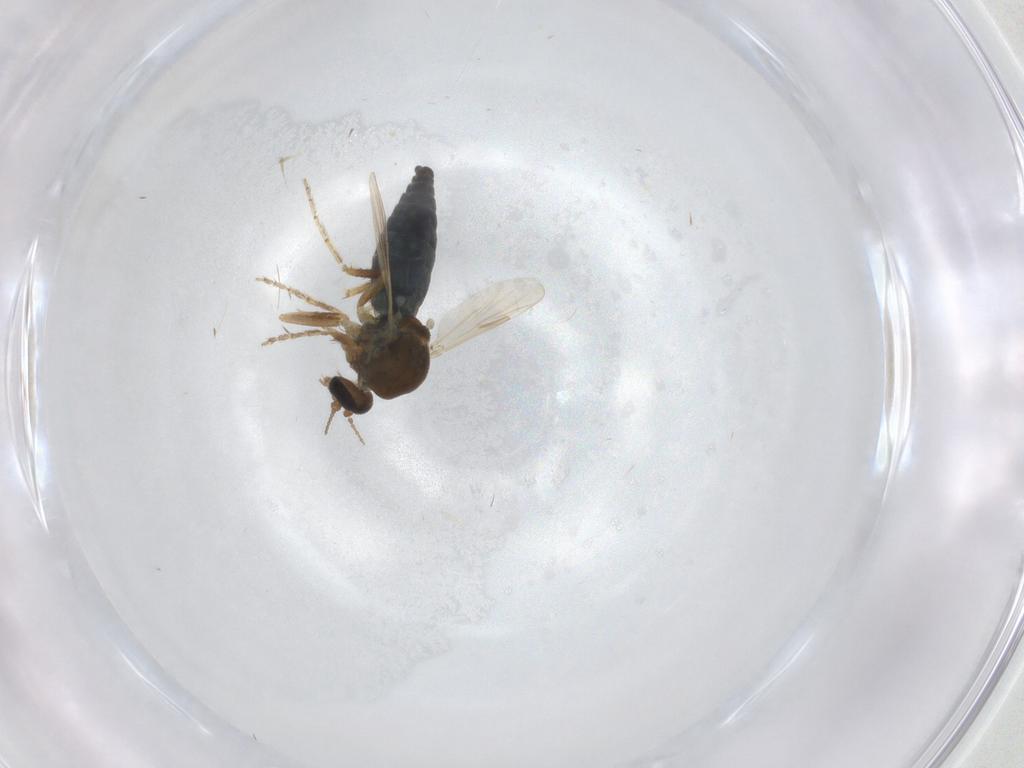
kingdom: Animalia
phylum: Arthropoda
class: Insecta
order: Diptera
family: Ceratopogonidae
